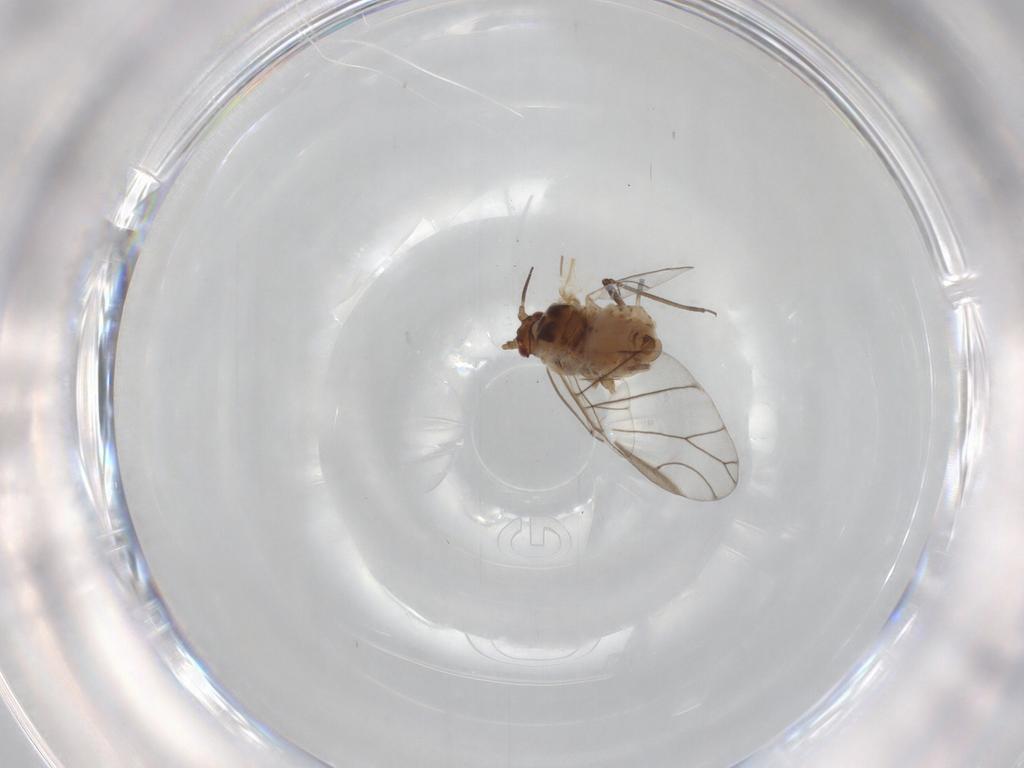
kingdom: Animalia
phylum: Arthropoda
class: Insecta
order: Hemiptera
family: Aphididae
